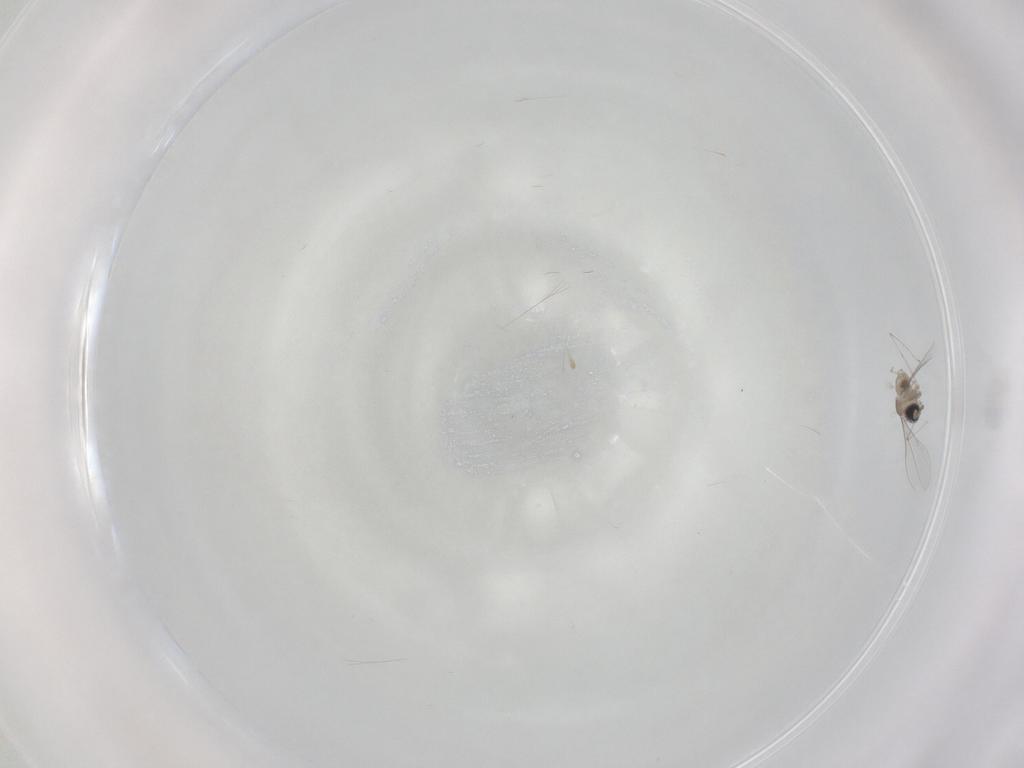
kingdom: Animalia
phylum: Arthropoda
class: Insecta
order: Diptera
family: Cecidomyiidae
